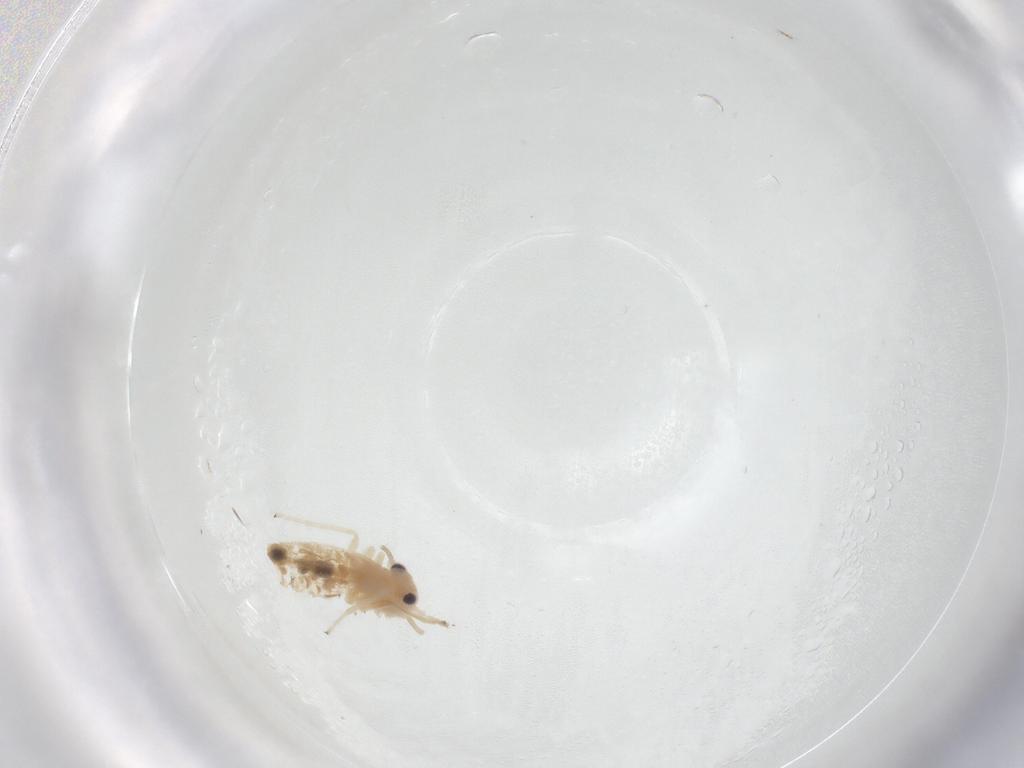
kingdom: Animalia
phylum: Arthropoda
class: Insecta
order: Psocodea
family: Caeciliusidae
